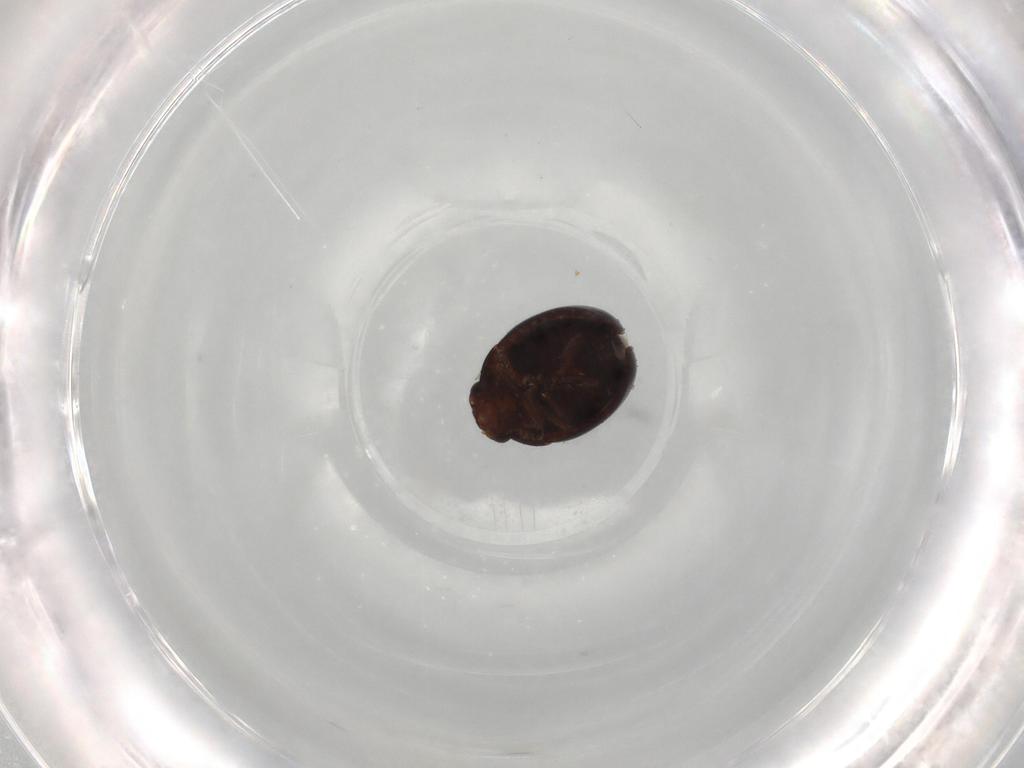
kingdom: Animalia
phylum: Arthropoda
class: Insecta
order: Coleoptera
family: Leiodidae
